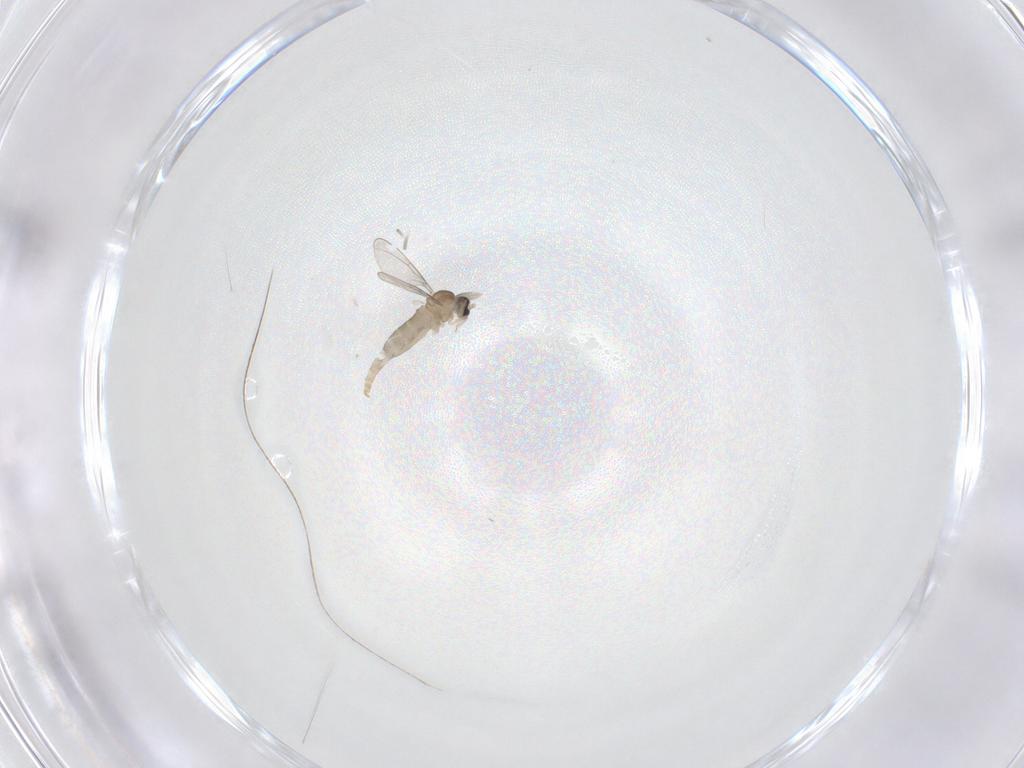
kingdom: Animalia
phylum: Arthropoda
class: Insecta
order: Diptera
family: Cecidomyiidae
